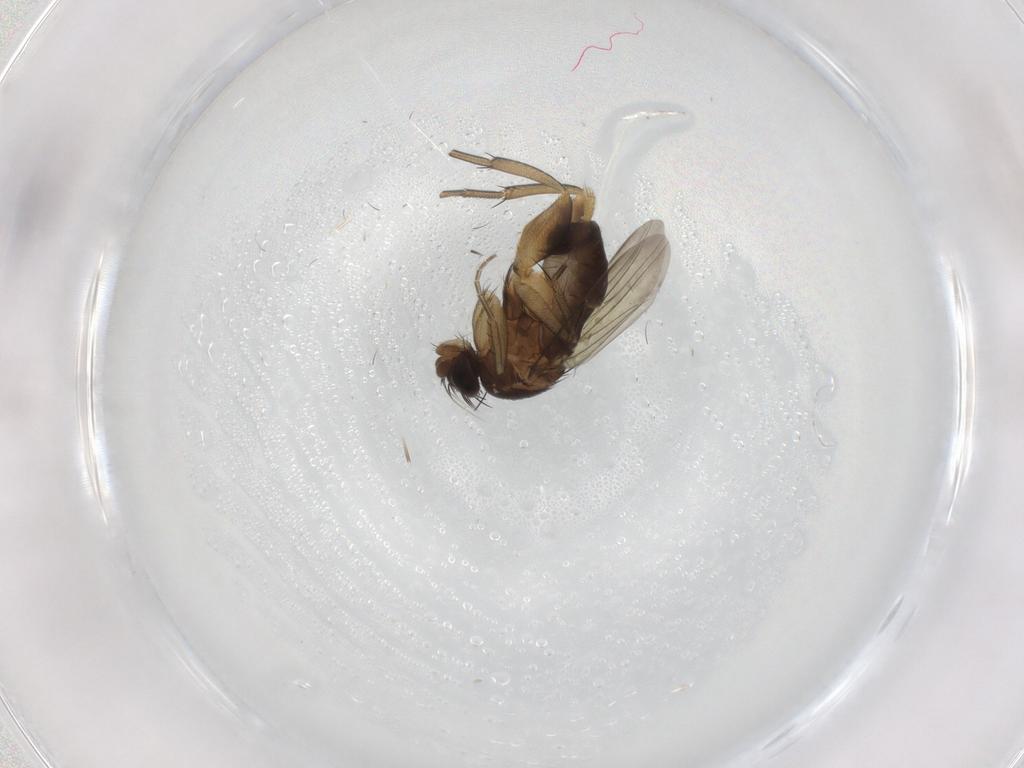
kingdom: Animalia
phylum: Arthropoda
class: Insecta
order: Diptera
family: Phoridae
